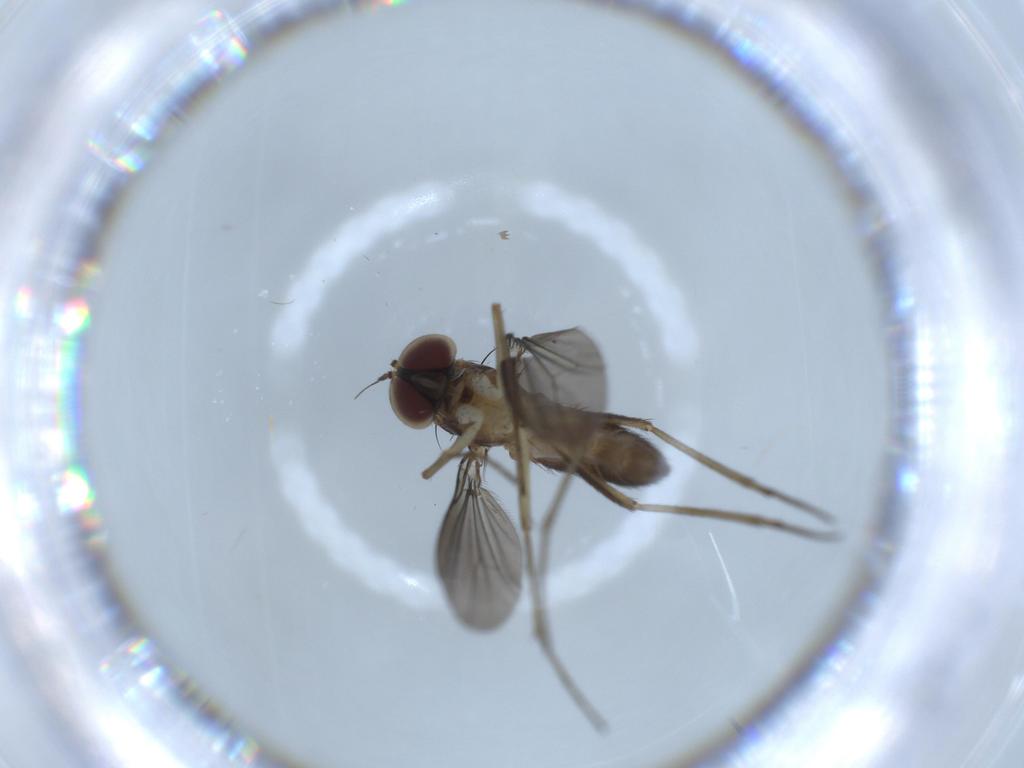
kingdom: Animalia
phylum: Arthropoda
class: Insecta
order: Diptera
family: Dolichopodidae
